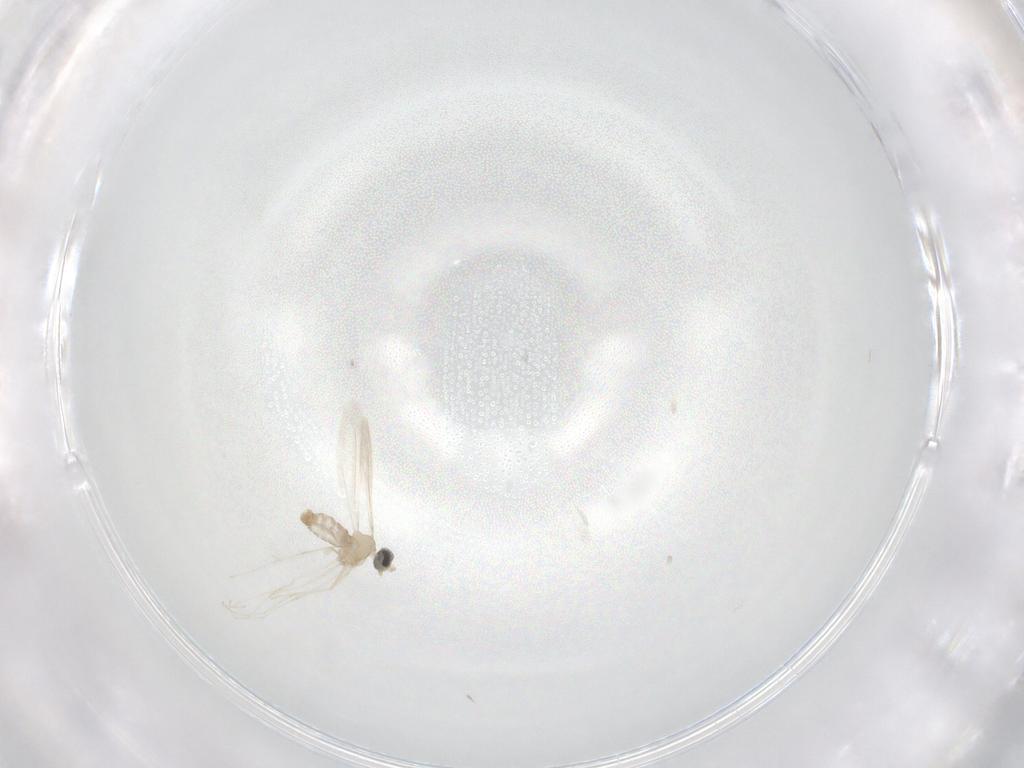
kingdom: Animalia
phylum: Arthropoda
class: Insecta
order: Diptera
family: Cecidomyiidae
